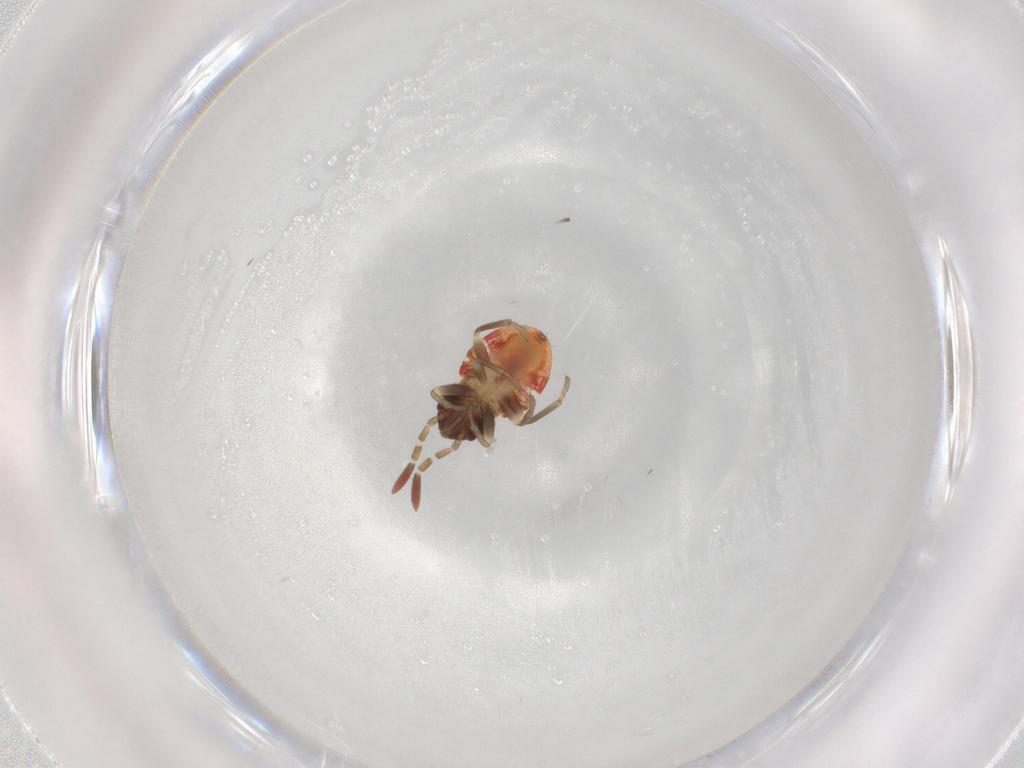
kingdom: Animalia
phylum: Arthropoda
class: Insecta
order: Hemiptera
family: Rhyparochromidae
